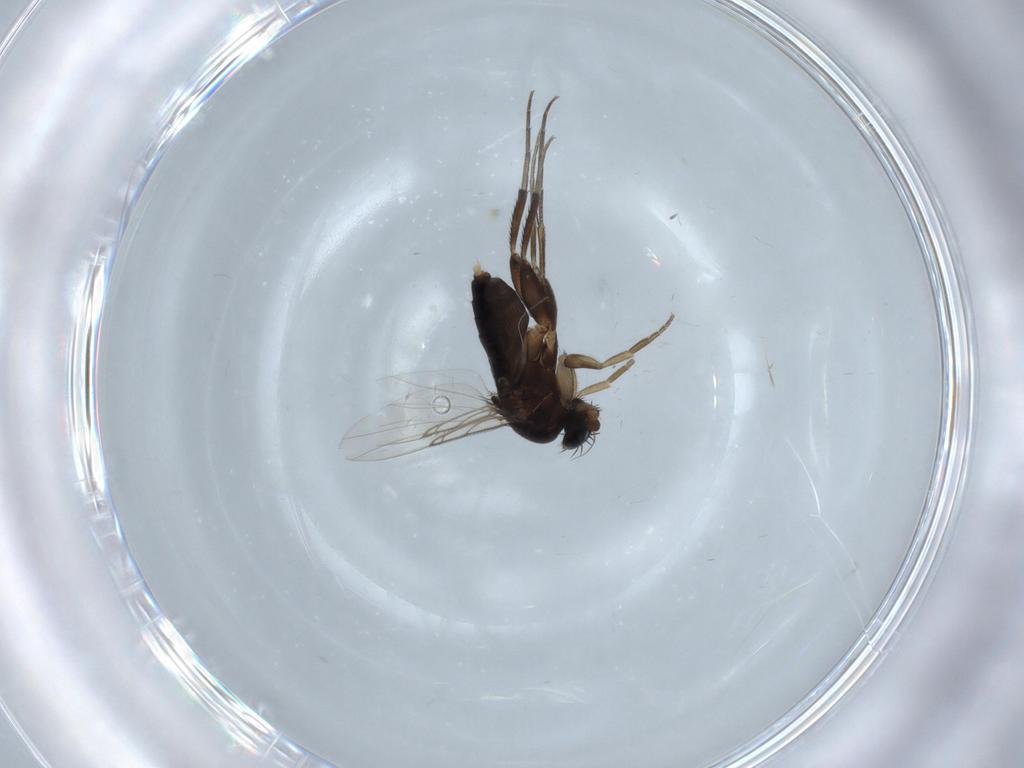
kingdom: Animalia
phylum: Arthropoda
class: Insecta
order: Diptera
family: Phoridae
